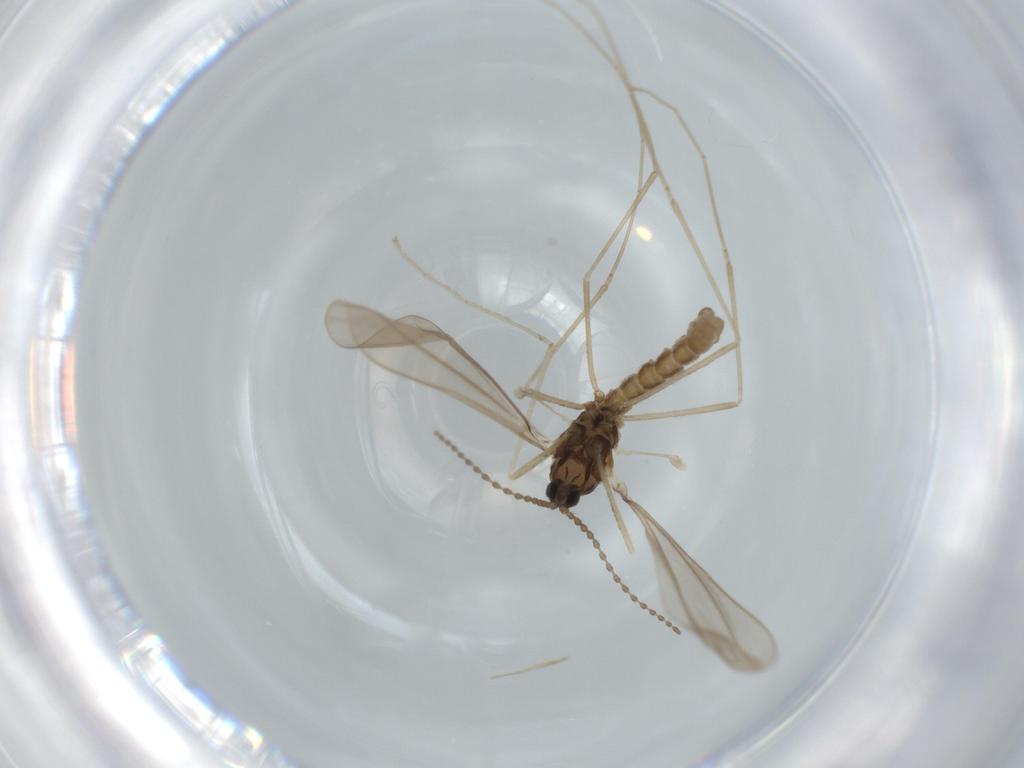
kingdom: Animalia
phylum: Arthropoda
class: Insecta
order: Diptera
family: Cecidomyiidae
